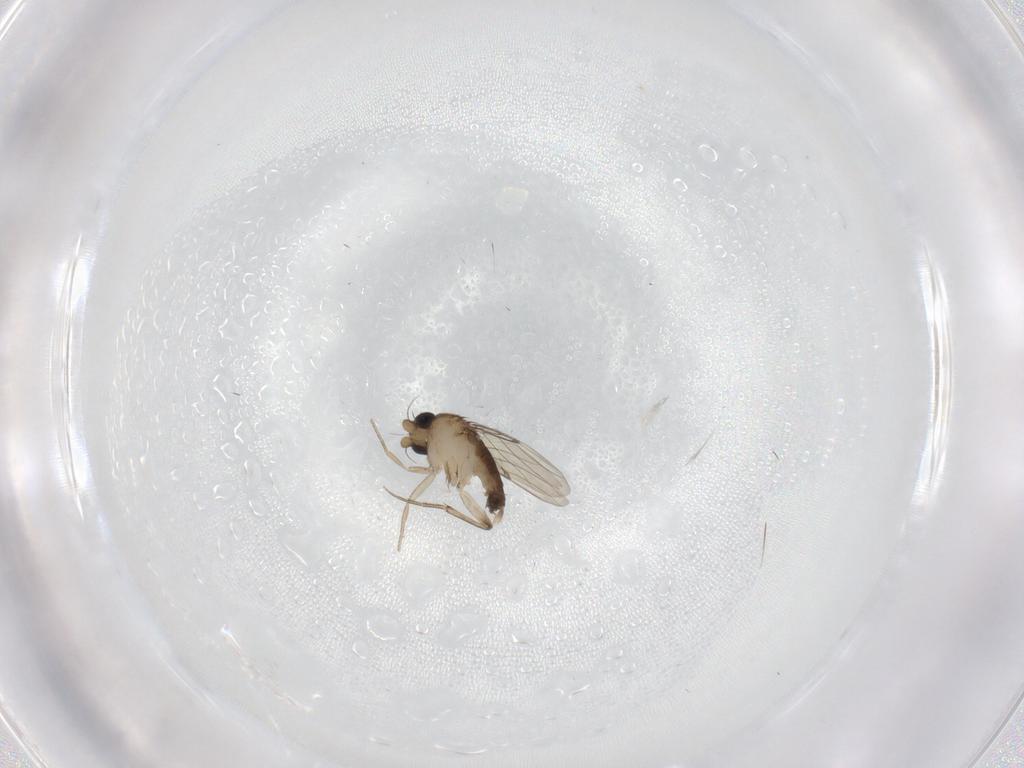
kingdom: Animalia
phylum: Arthropoda
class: Insecta
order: Diptera
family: Phoridae
